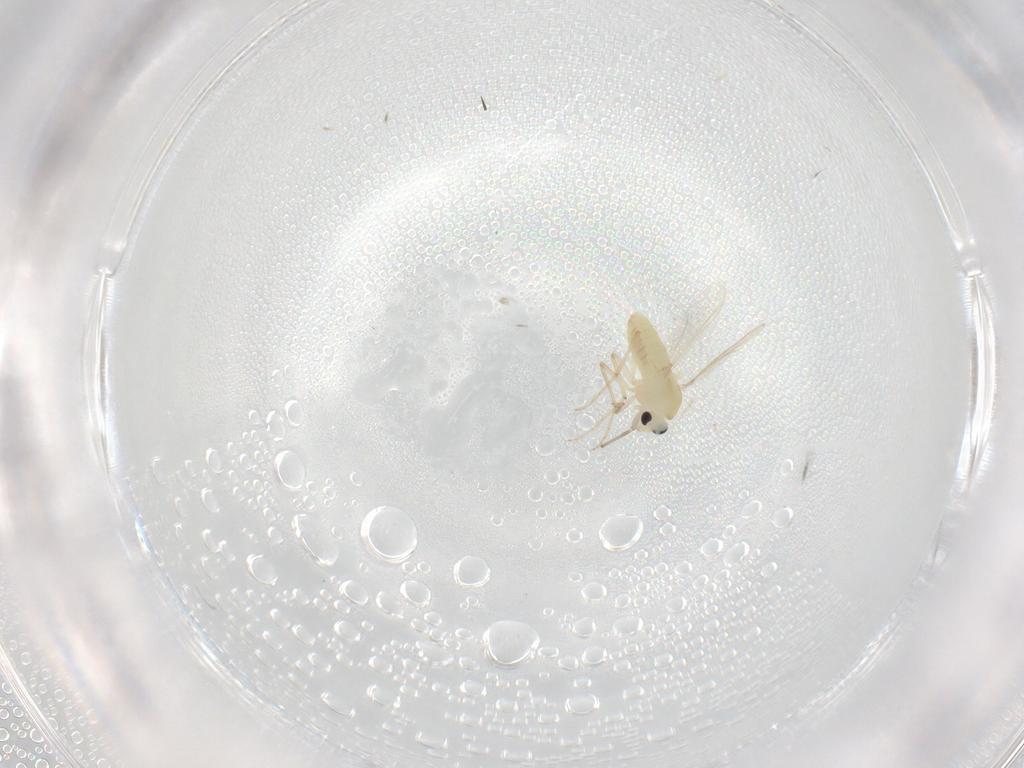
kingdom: Animalia
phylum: Arthropoda
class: Insecta
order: Diptera
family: Chironomidae
